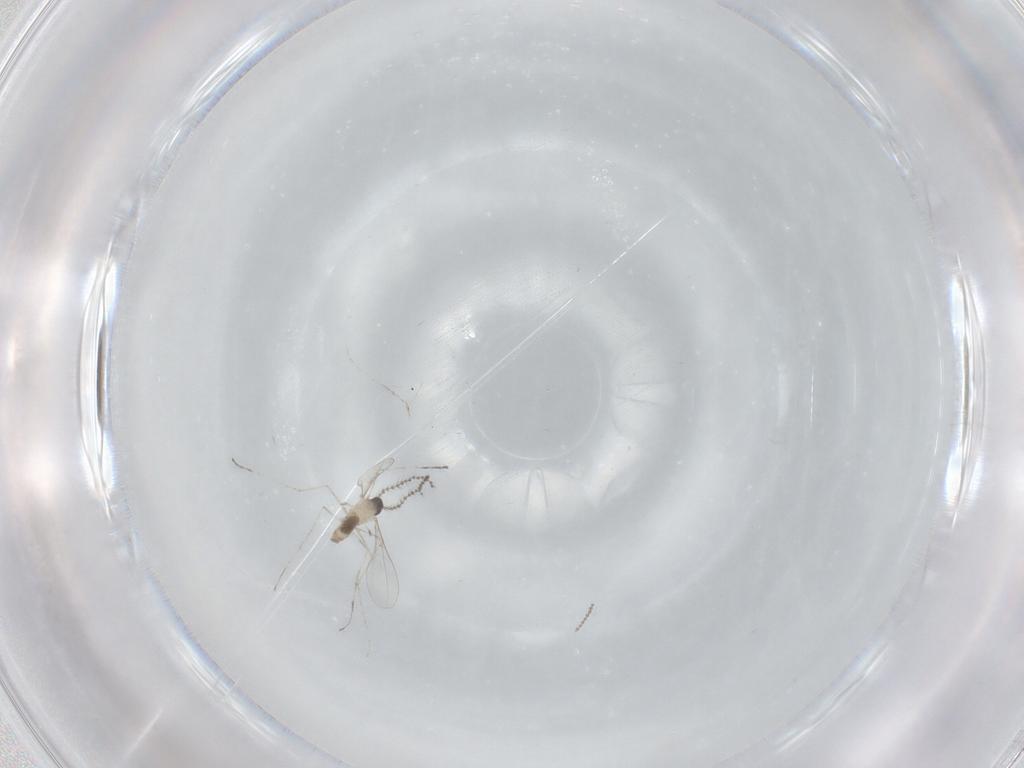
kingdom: Animalia
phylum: Arthropoda
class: Insecta
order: Diptera
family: Cecidomyiidae
